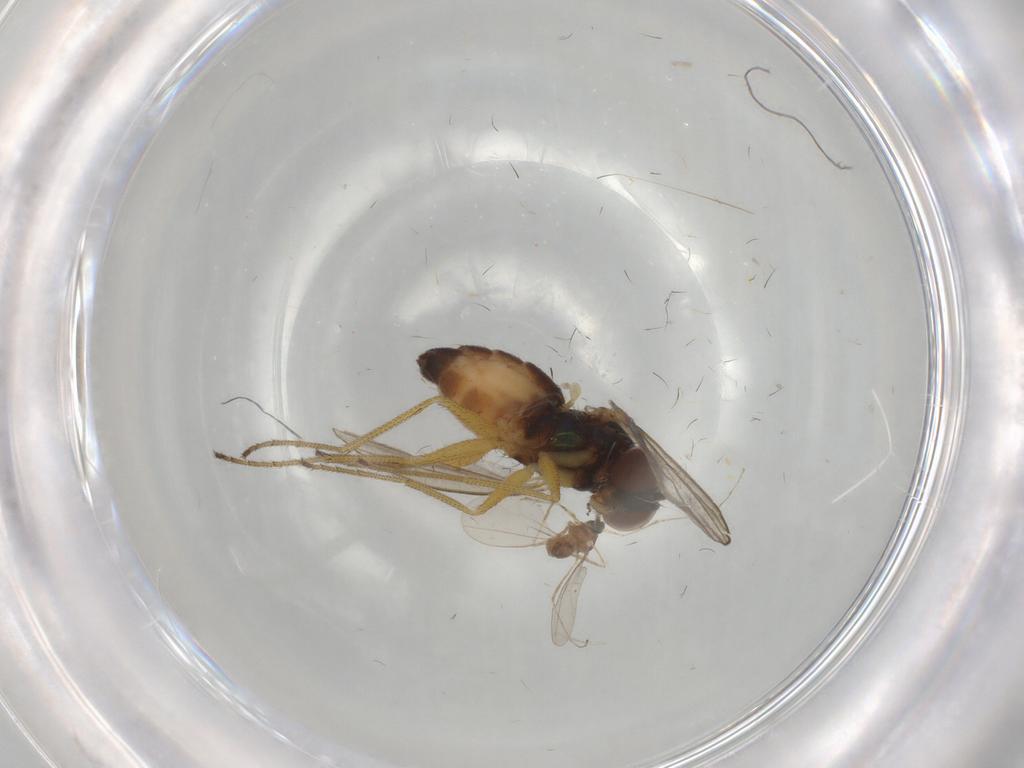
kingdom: Animalia
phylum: Arthropoda
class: Insecta
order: Diptera
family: Cecidomyiidae
